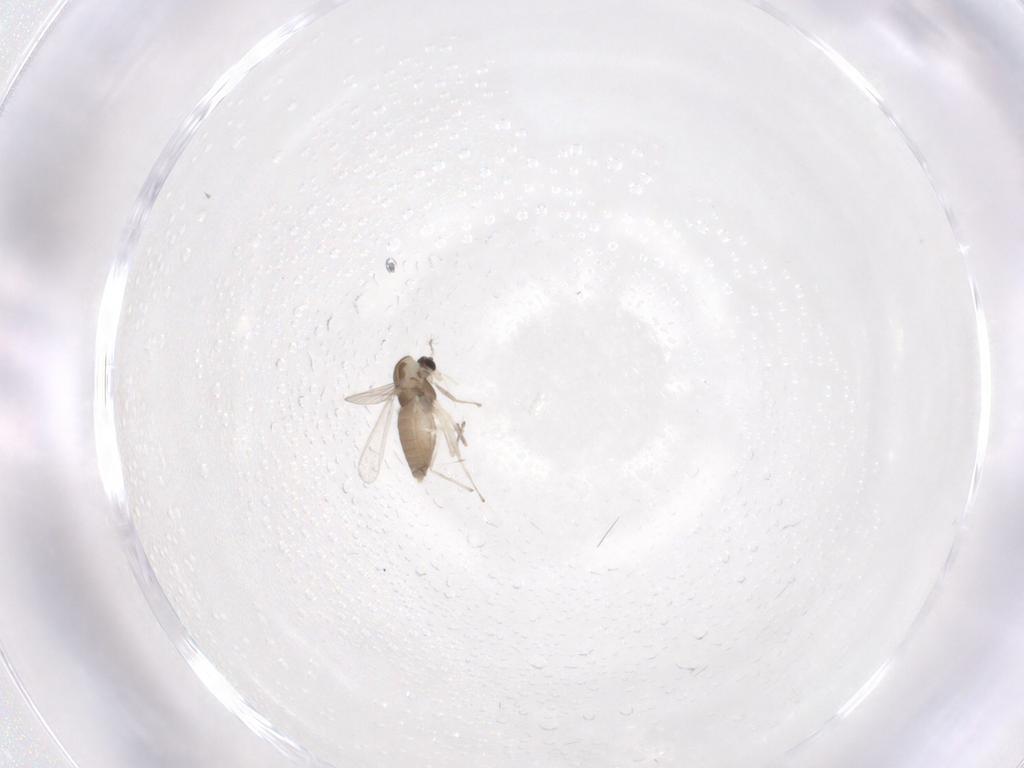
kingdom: Animalia
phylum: Arthropoda
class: Insecta
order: Diptera
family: Chironomidae
